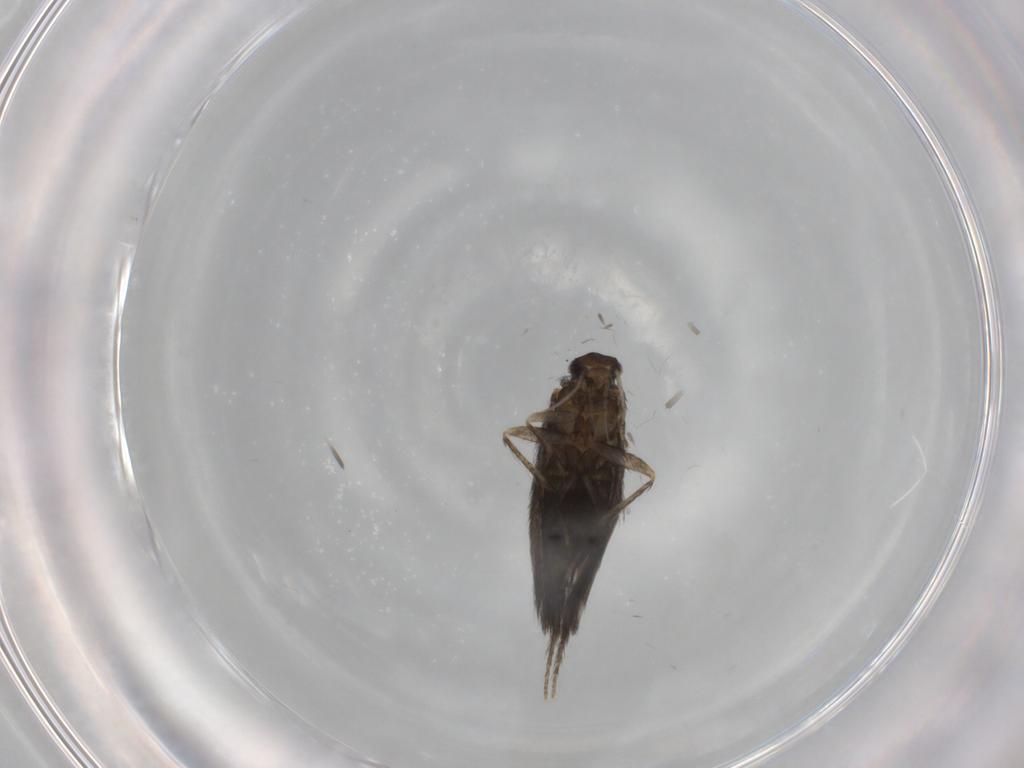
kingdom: Animalia
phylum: Arthropoda
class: Insecta
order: Trichoptera
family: Hydroptilidae
